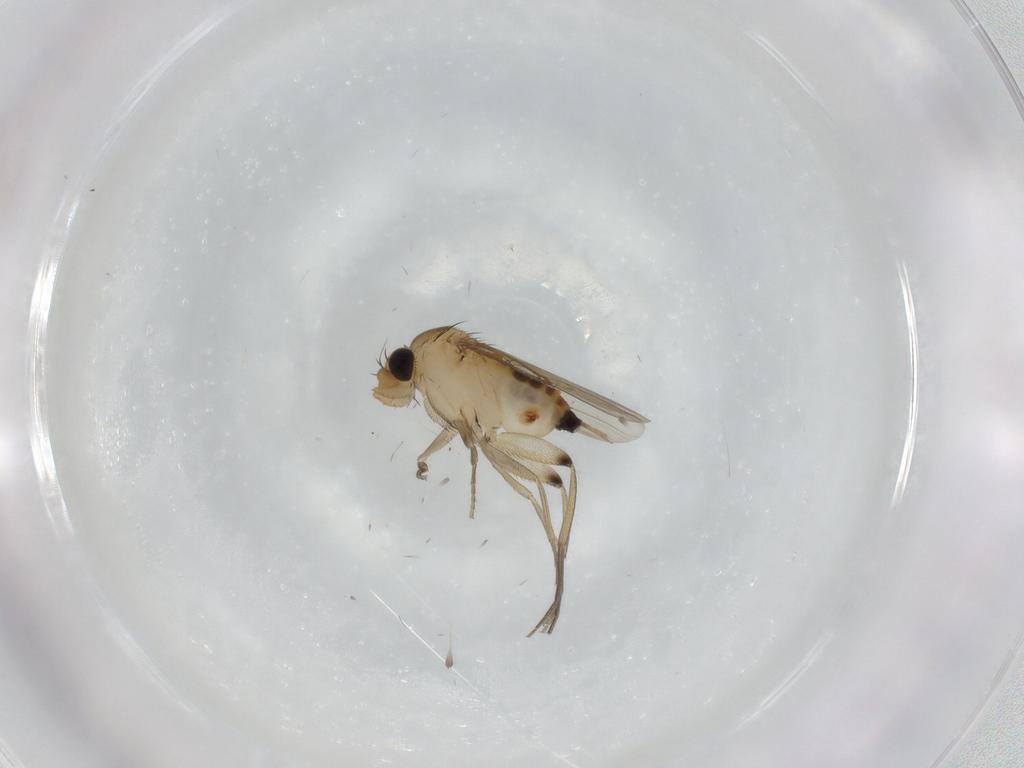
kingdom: Animalia
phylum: Arthropoda
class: Insecta
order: Diptera
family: Phoridae
